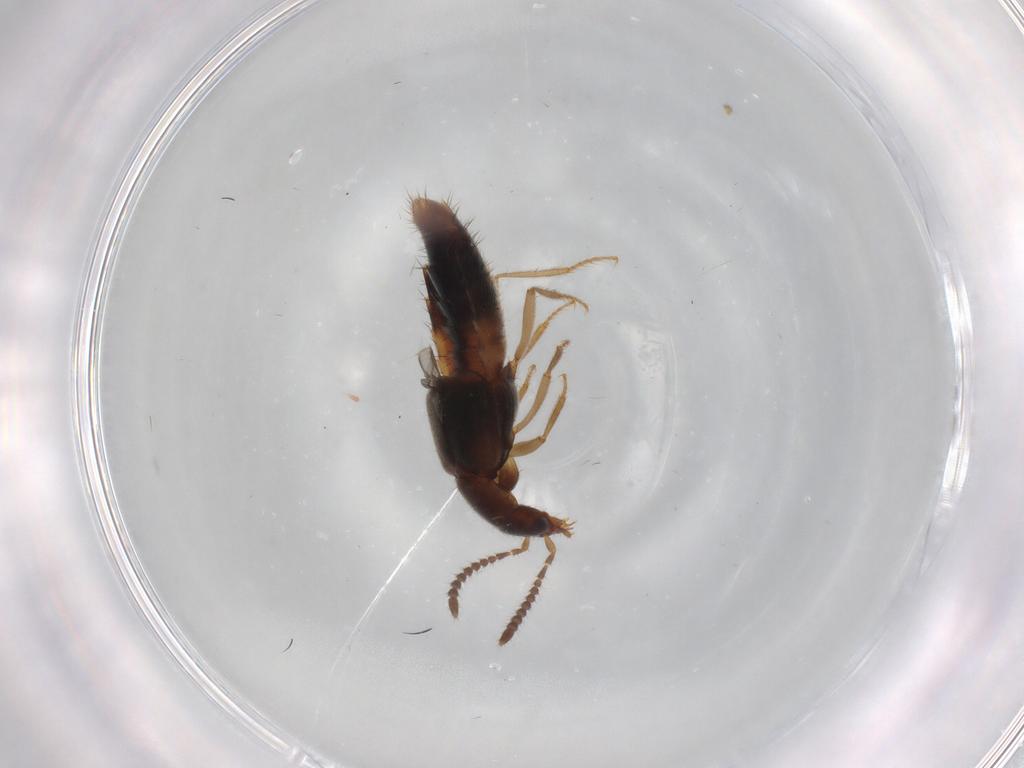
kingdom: Animalia
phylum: Arthropoda
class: Insecta
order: Coleoptera
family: Staphylinidae
